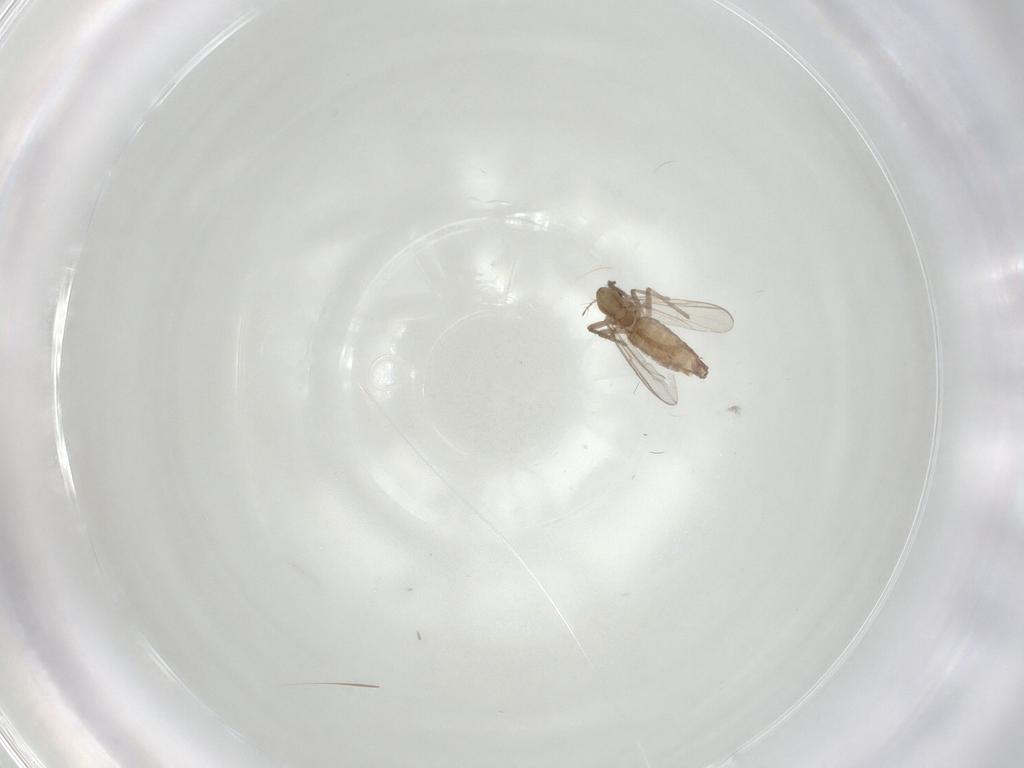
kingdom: Animalia
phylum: Arthropoda
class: Insecta
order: Diptera
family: Chironomidae
